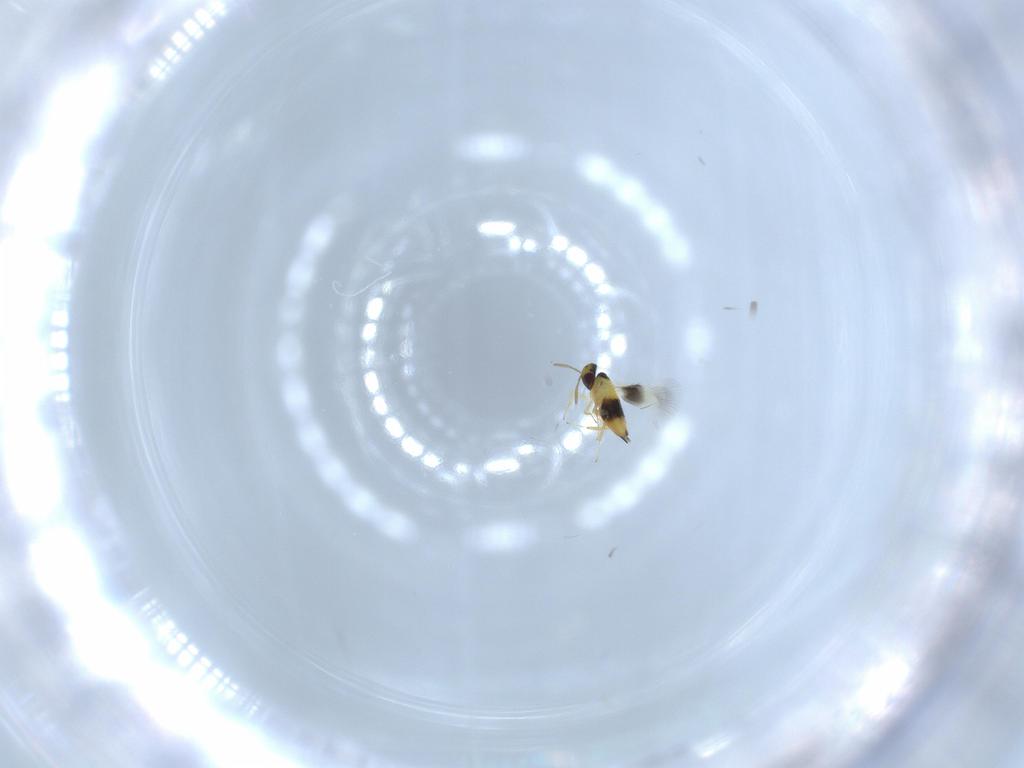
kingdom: Animalia
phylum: Arthropoda
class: Insecta
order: Hymenoptera
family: Signiphoridae
